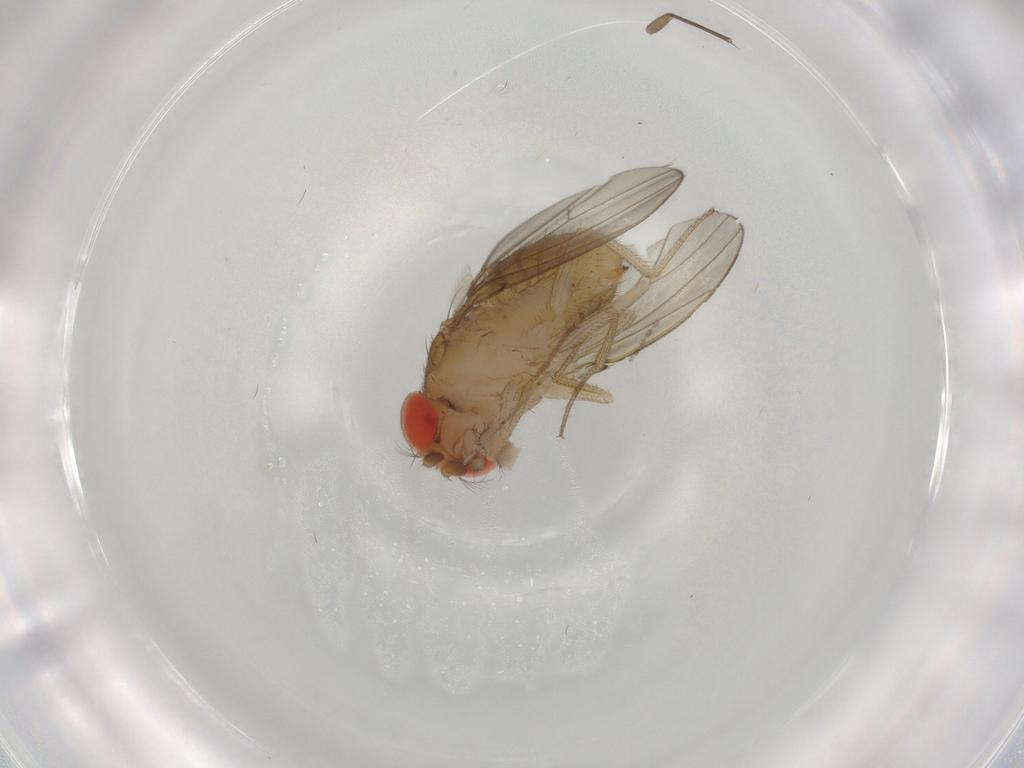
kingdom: Animalia
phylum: Arthropoda
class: Insecta
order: Diptera
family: Drosophilidae
